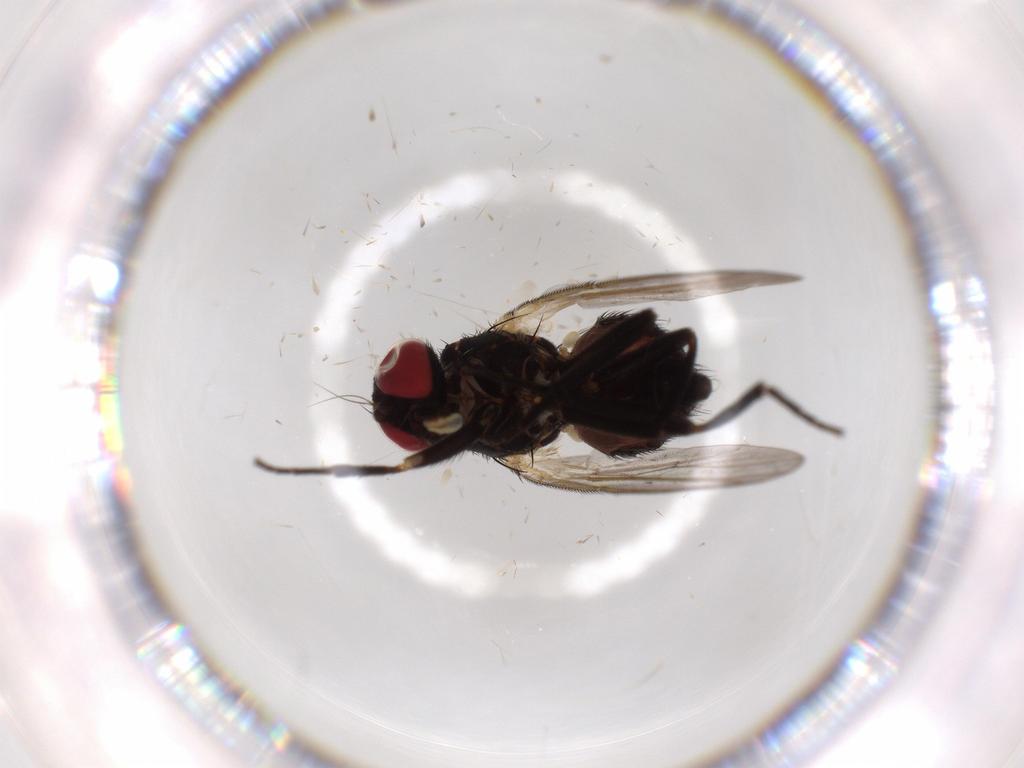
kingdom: Animalia
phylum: Arthropoda
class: Insecta
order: Diptera
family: Agromyzidae
